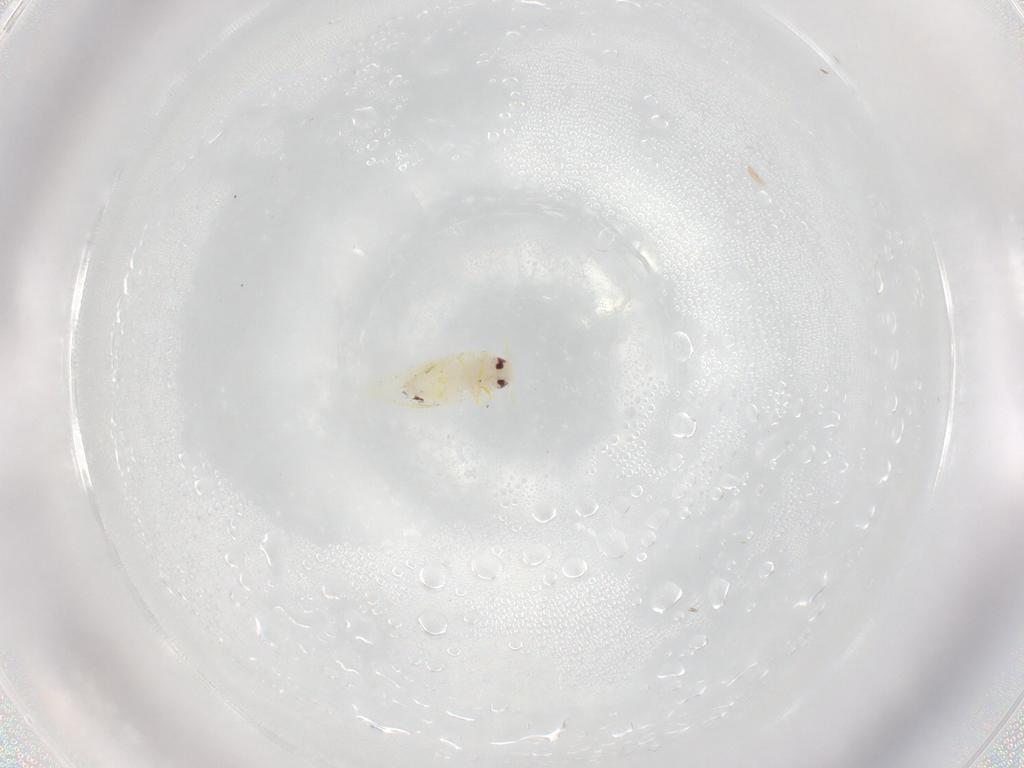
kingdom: Animalia
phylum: Arthropoda
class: Insecta
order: Hemiptera
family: Aleyrodidae
